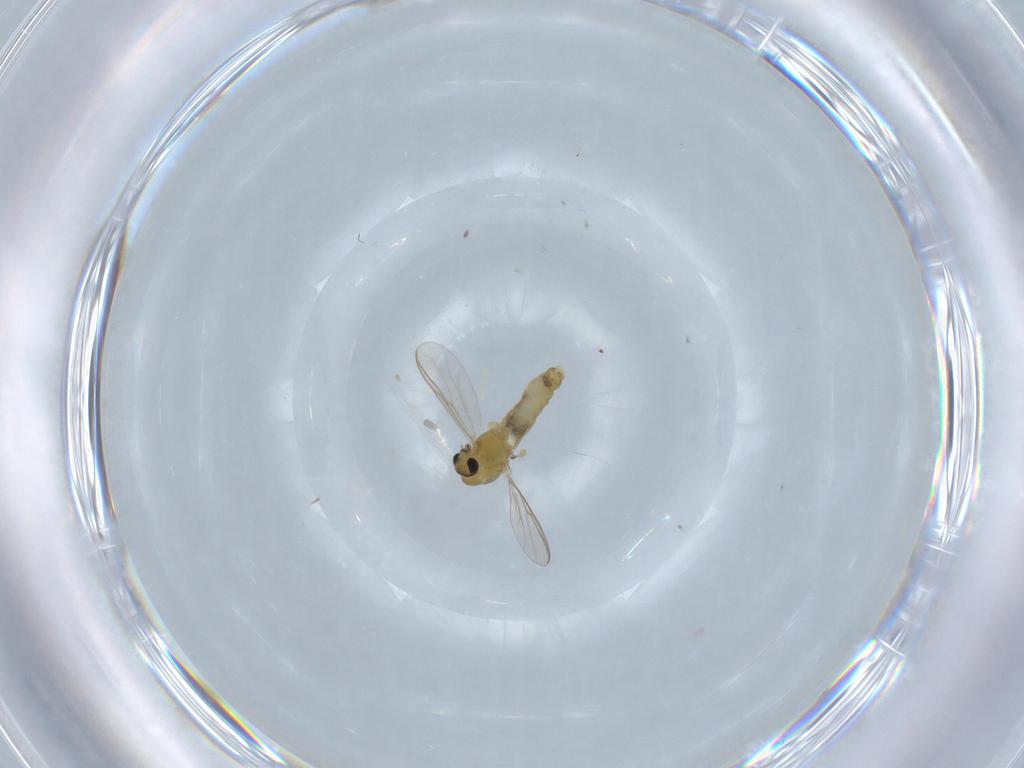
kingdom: Animalia
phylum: Arthropoda
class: Insecta
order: Diptera
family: Chironomidae
